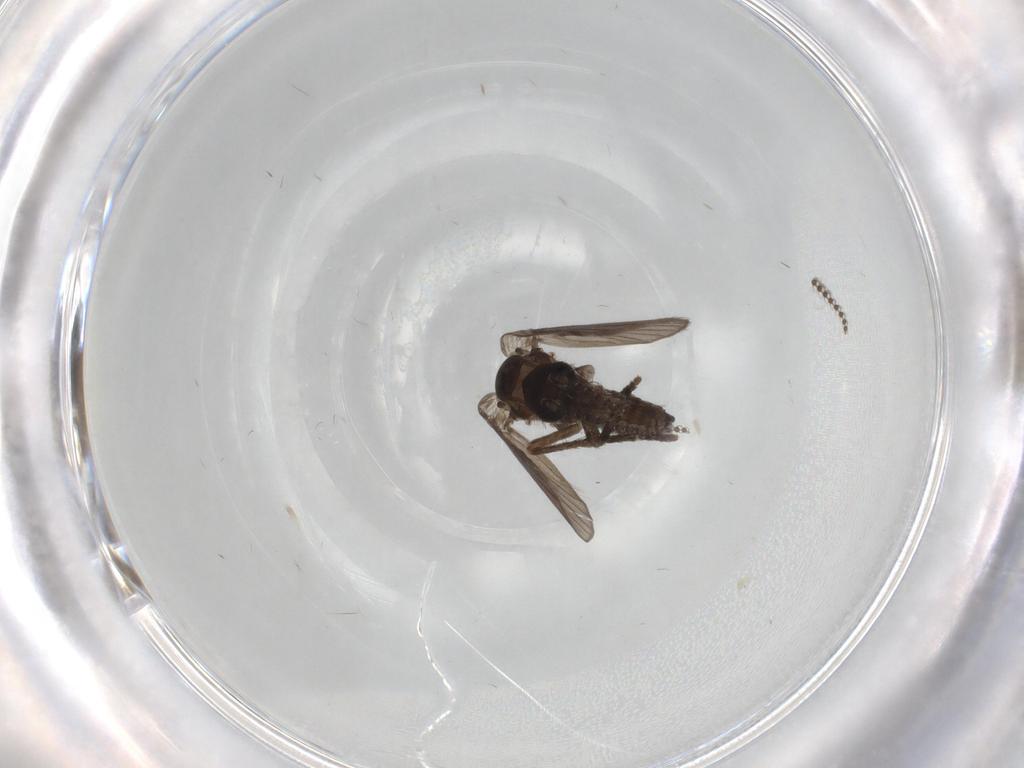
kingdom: Animalia
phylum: Arthropoda
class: Insecta
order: Diptera
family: Psychodidae
